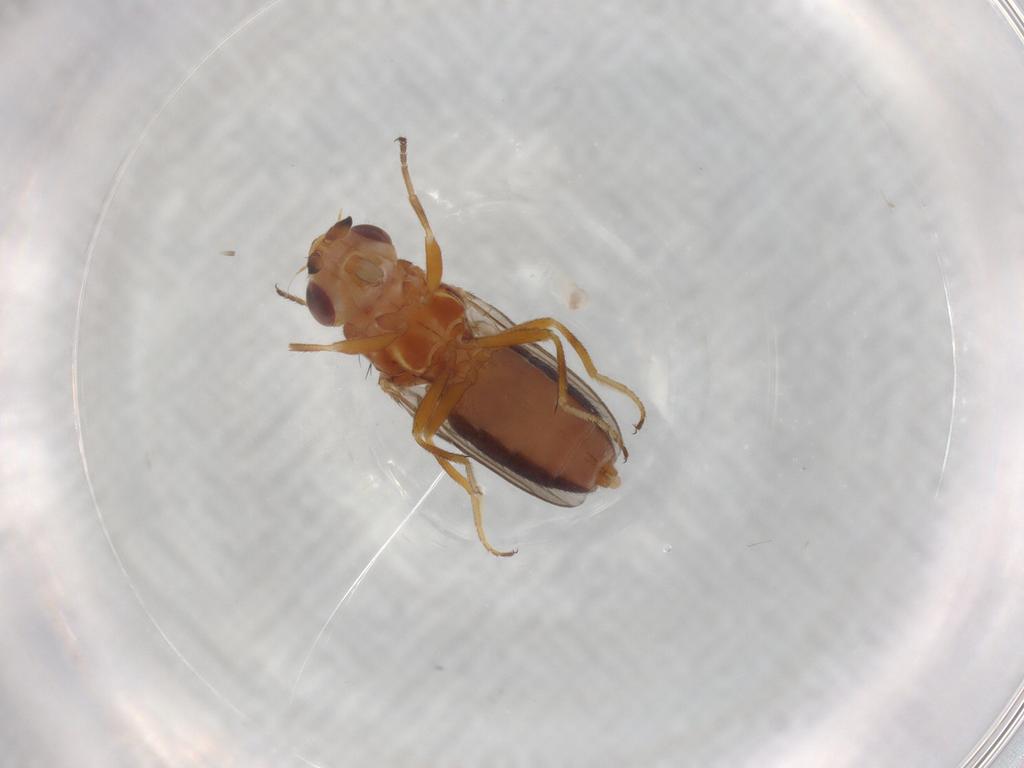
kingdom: Animalia
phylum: Arthropoda
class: Insecta
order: Diptera
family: Chloropidae
